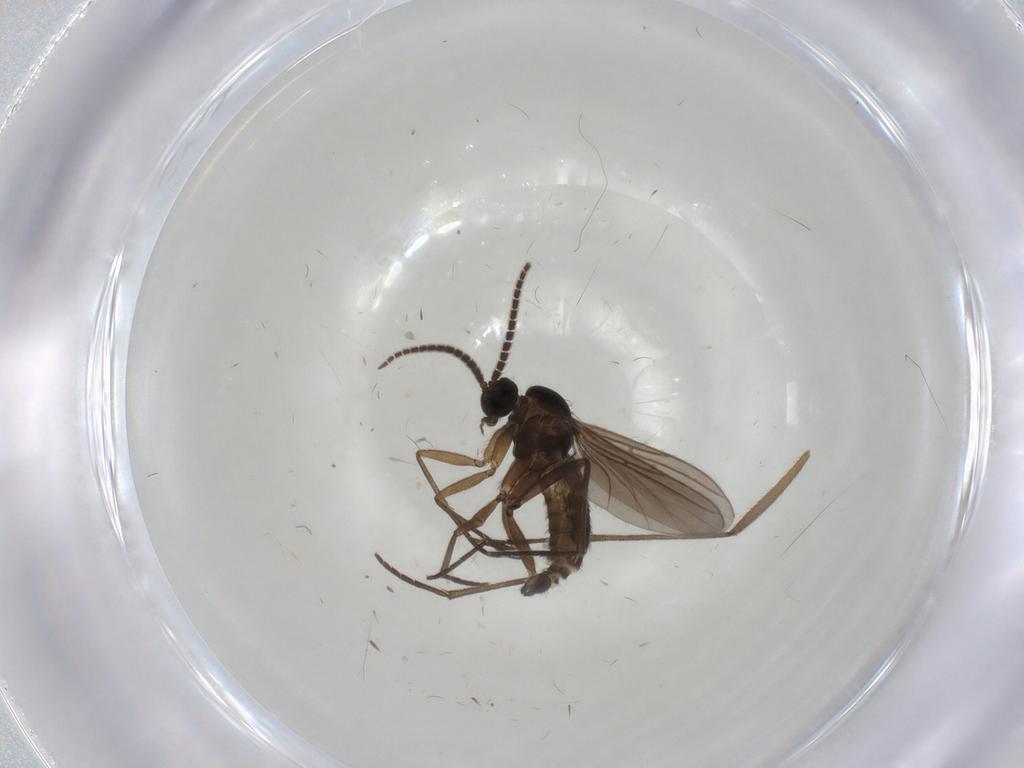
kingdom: Animalia
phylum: Arthropoda
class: Insecta
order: Diptera
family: Sciaridae
